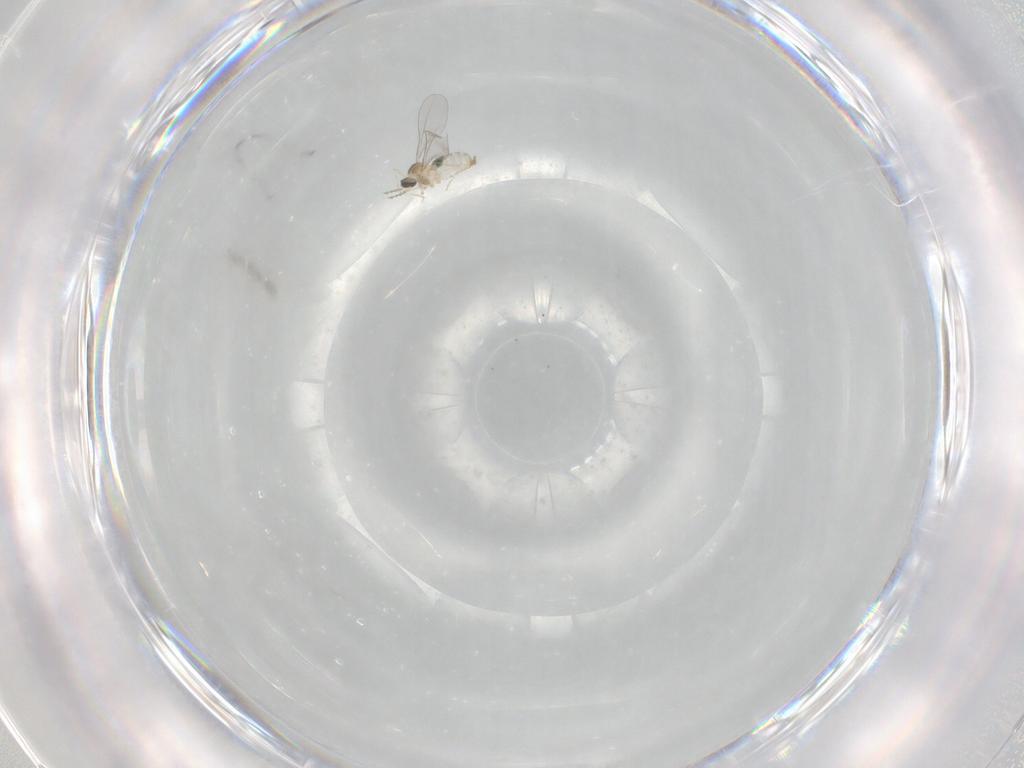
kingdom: Animalia
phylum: Arthropoda
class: Insecta
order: Diptera
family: Cecidomyiidae
